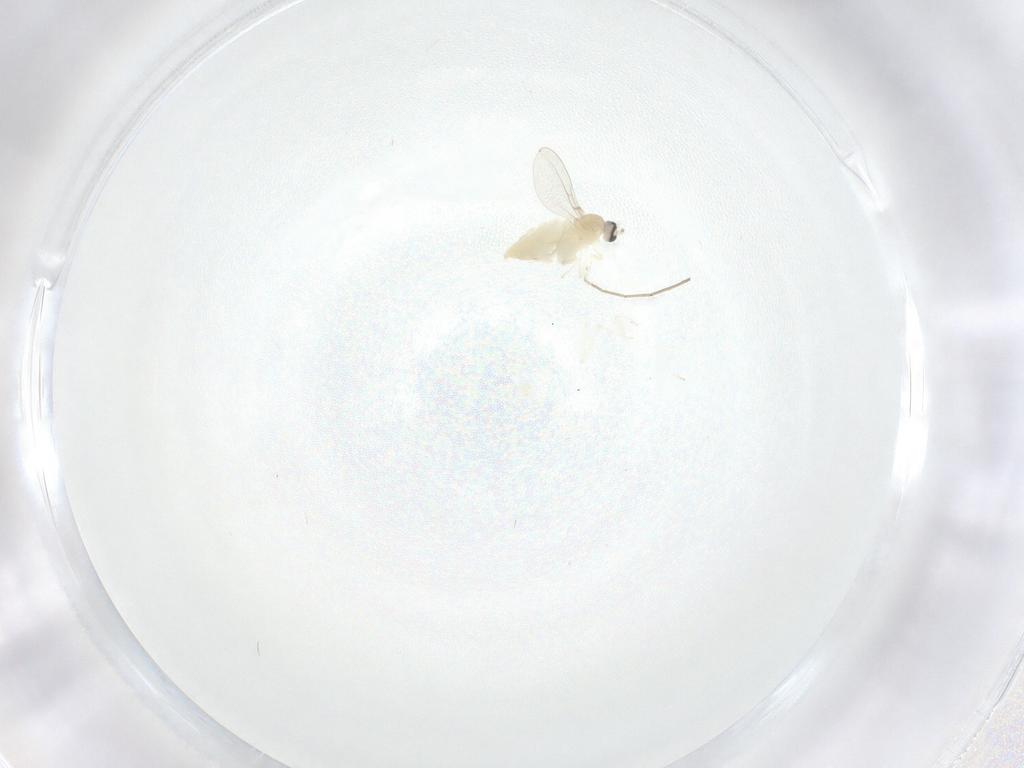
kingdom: Animalia
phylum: Arthropoda
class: Insecta
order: Diptera
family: Cecidomyiidae
